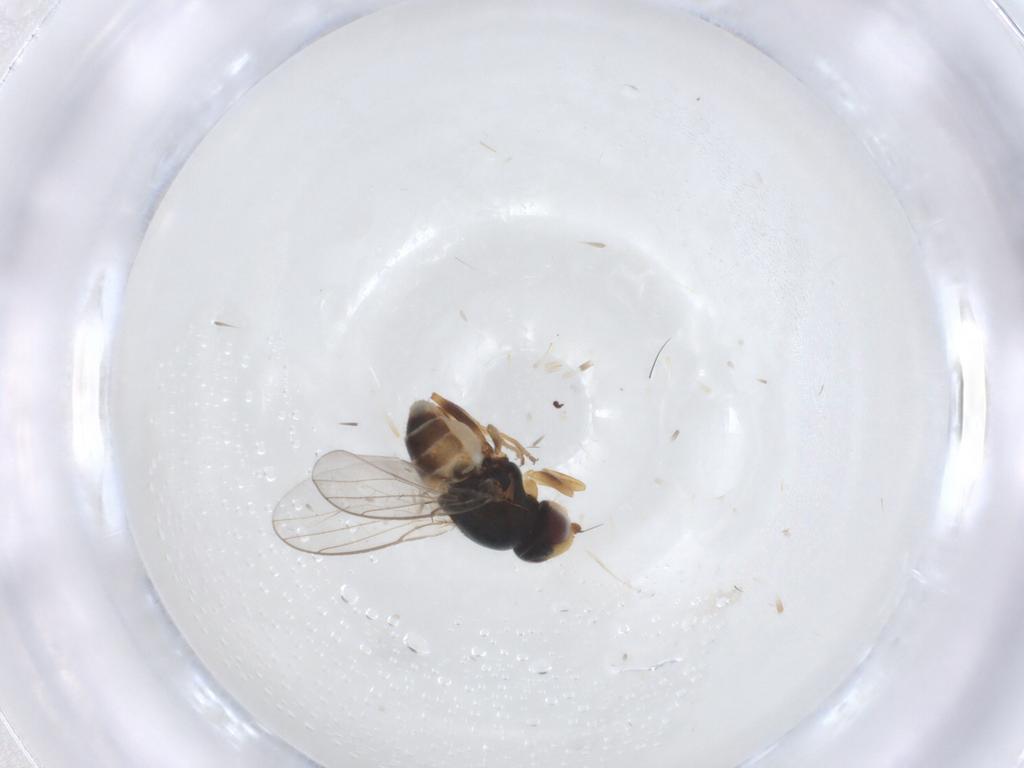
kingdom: Animalia
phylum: Arthropoda
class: Insecta
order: Diptera
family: Chloropidae
